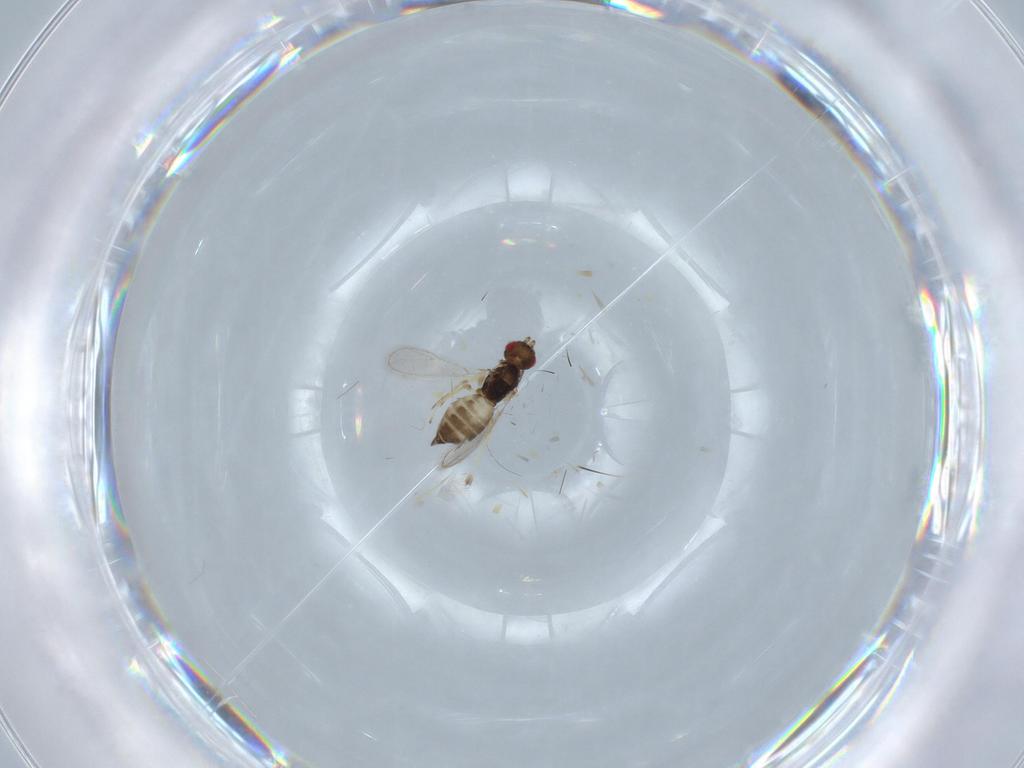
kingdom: Animalia
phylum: Arthropoda
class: Insecta
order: Hymenoptera
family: Eulophidae
